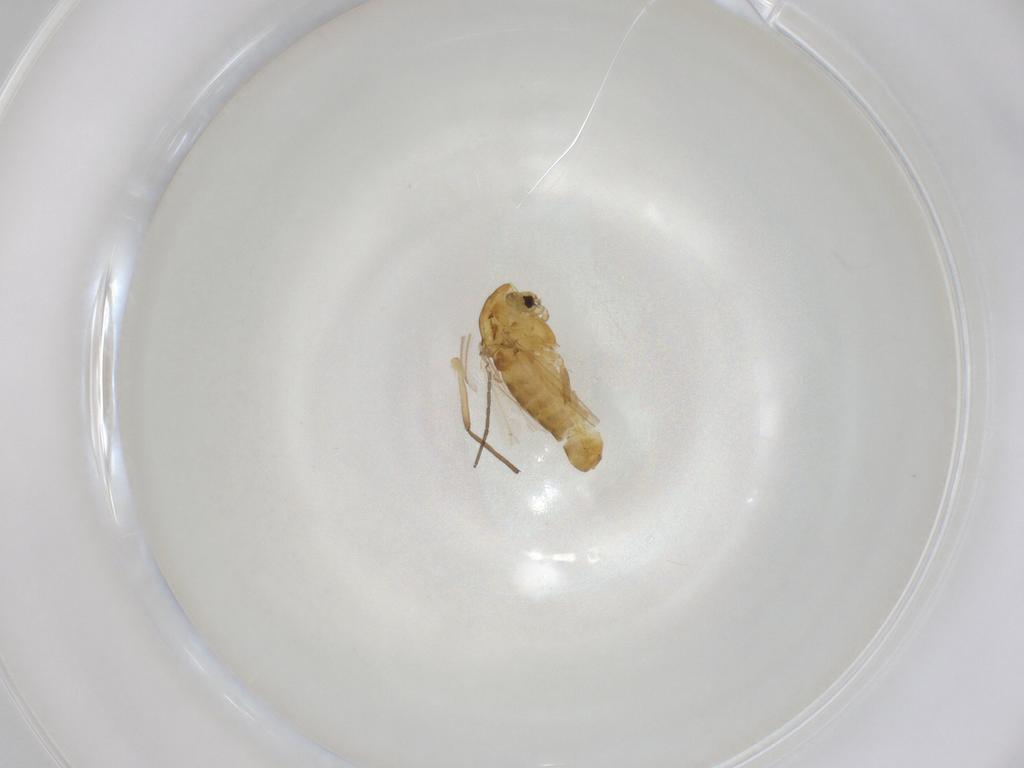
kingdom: Animalia
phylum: Arthropoda
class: Insecta
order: Diptera
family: Chironomidae
